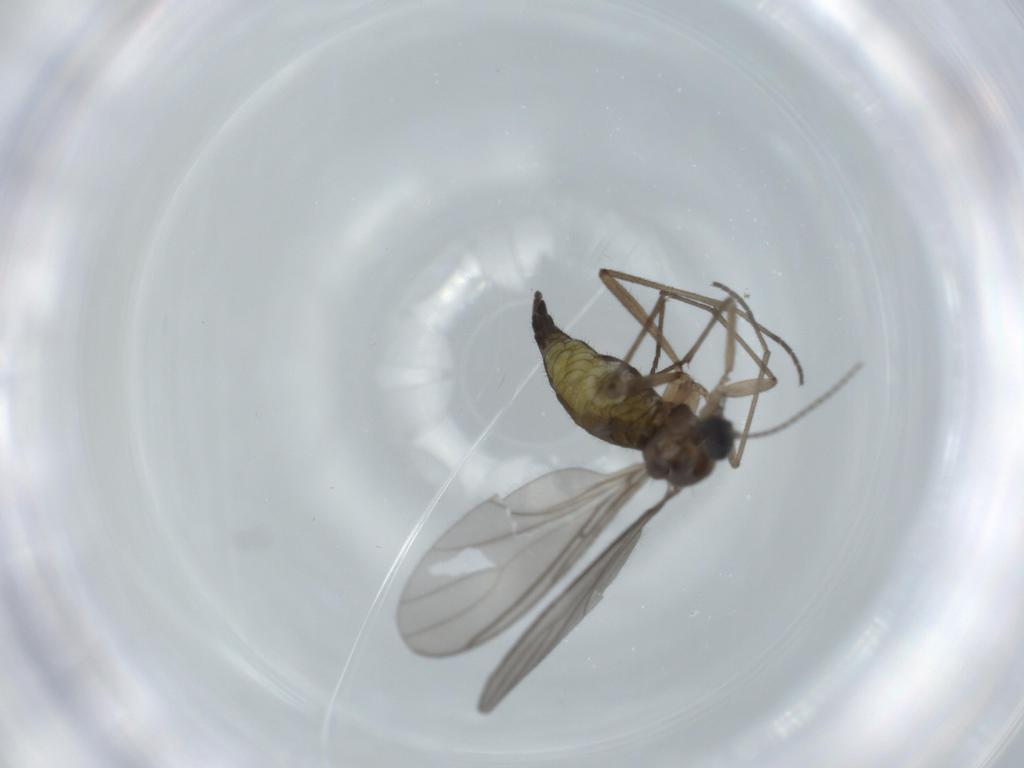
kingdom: Animalia
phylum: Arthropoda
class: Insecta
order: Diptera
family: Sciaridae
